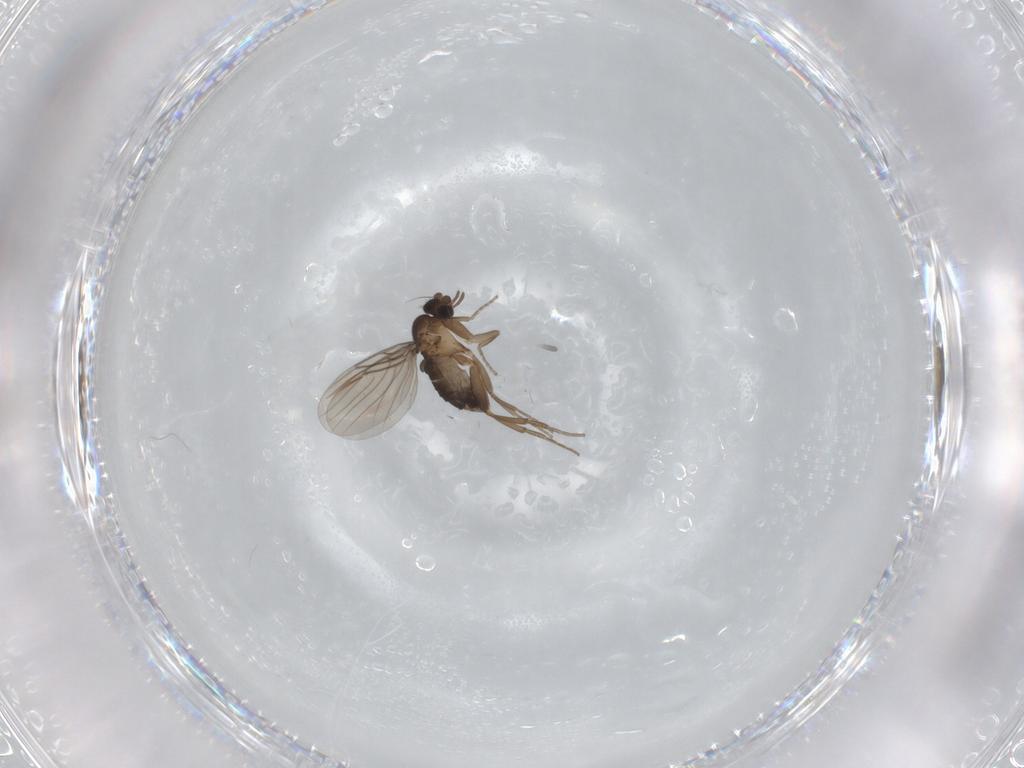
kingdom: Animalia
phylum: Arthropoda
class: Insecta
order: Diptera
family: Phoridae
